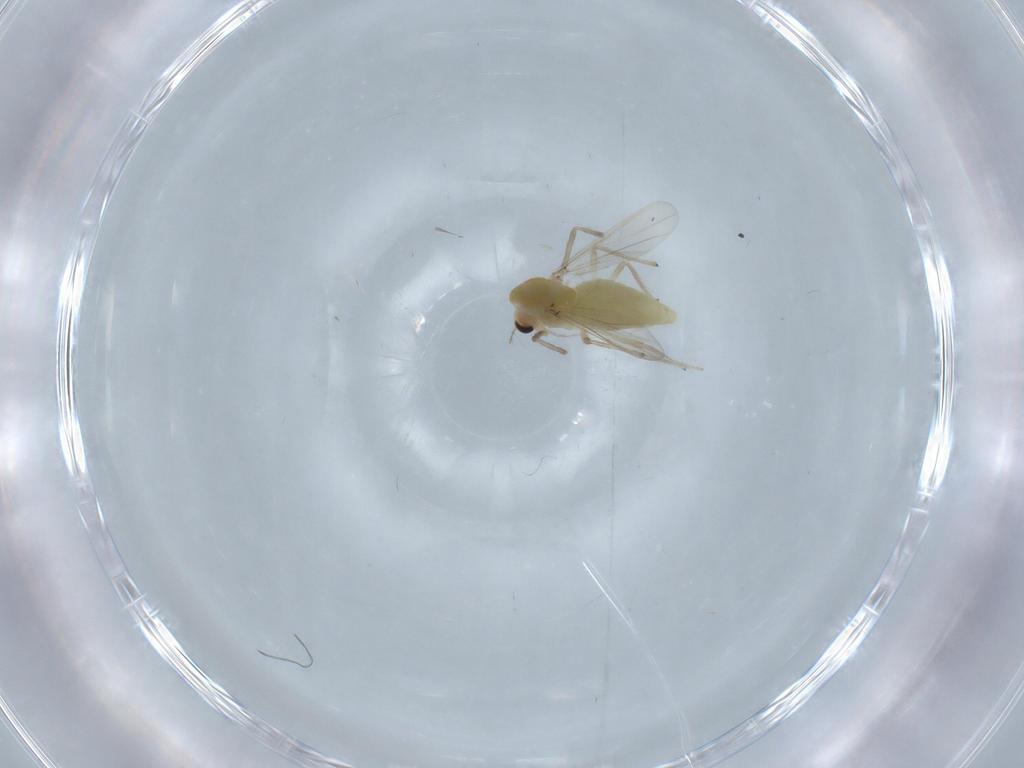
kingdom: Animalia
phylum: Arthropoda
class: Insecta
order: Diptera
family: Chironomidae
